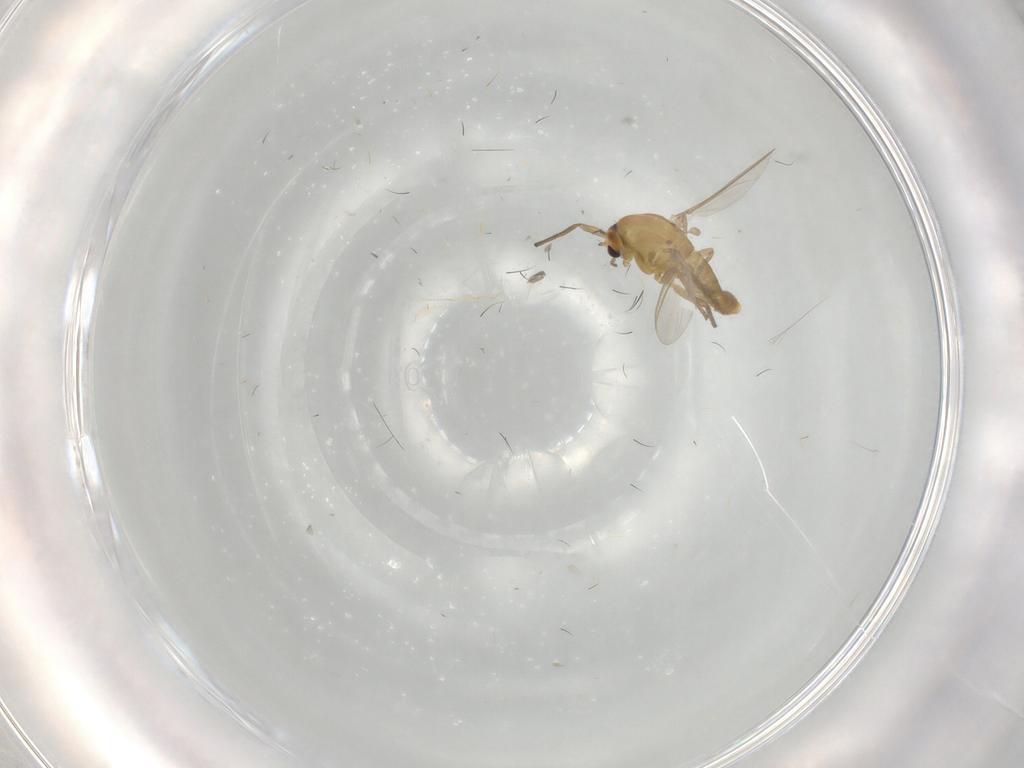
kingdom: Animalia
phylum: Arthropoda
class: Insecta
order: Diptera
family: Chironomidae
